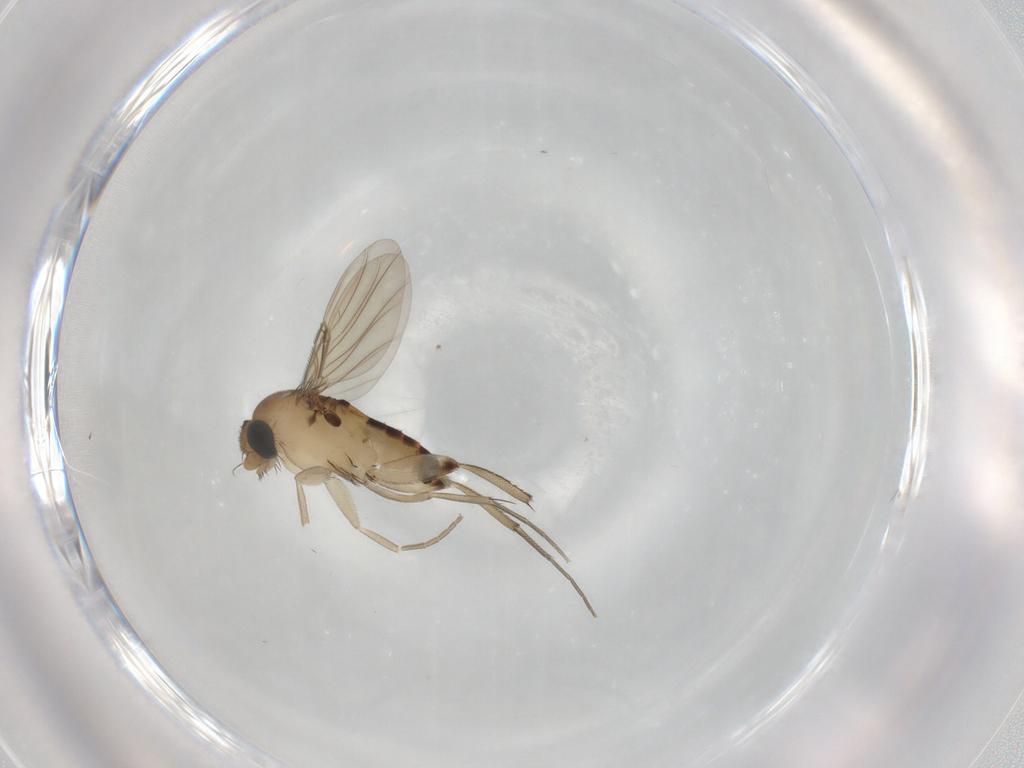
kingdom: Animalia
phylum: Arthropoda
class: Insecta
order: Diptera
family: Phoridae
